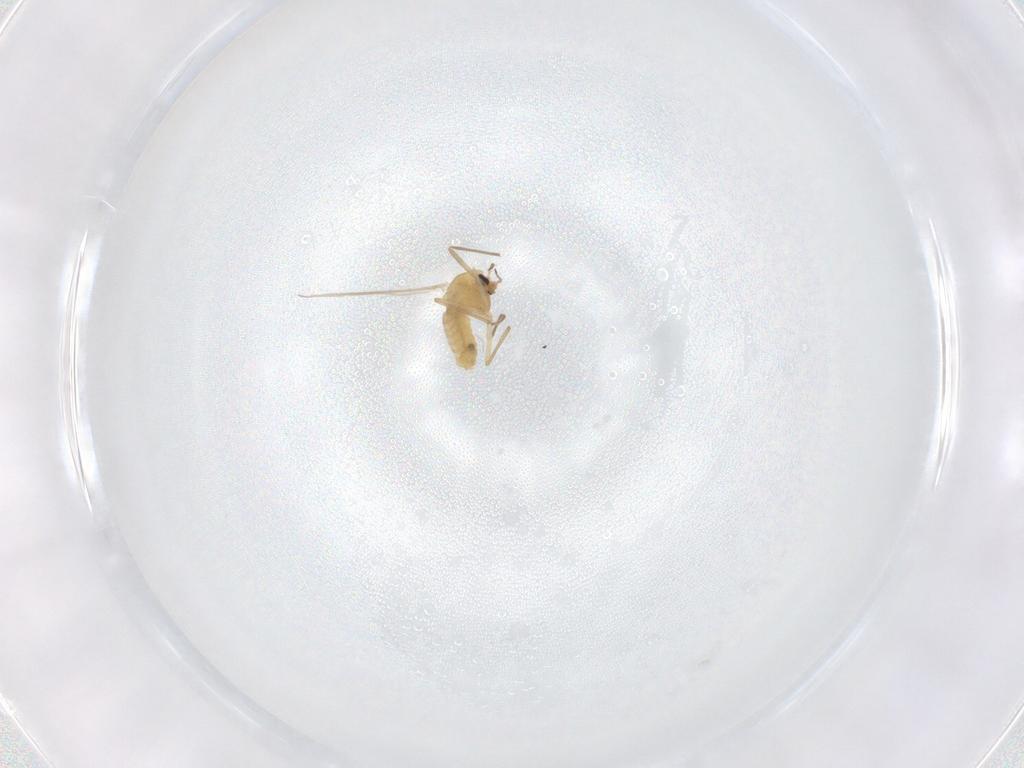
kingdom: Animalia
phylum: Arthropoda
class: Insecta
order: Diptera
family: Chironomidae
